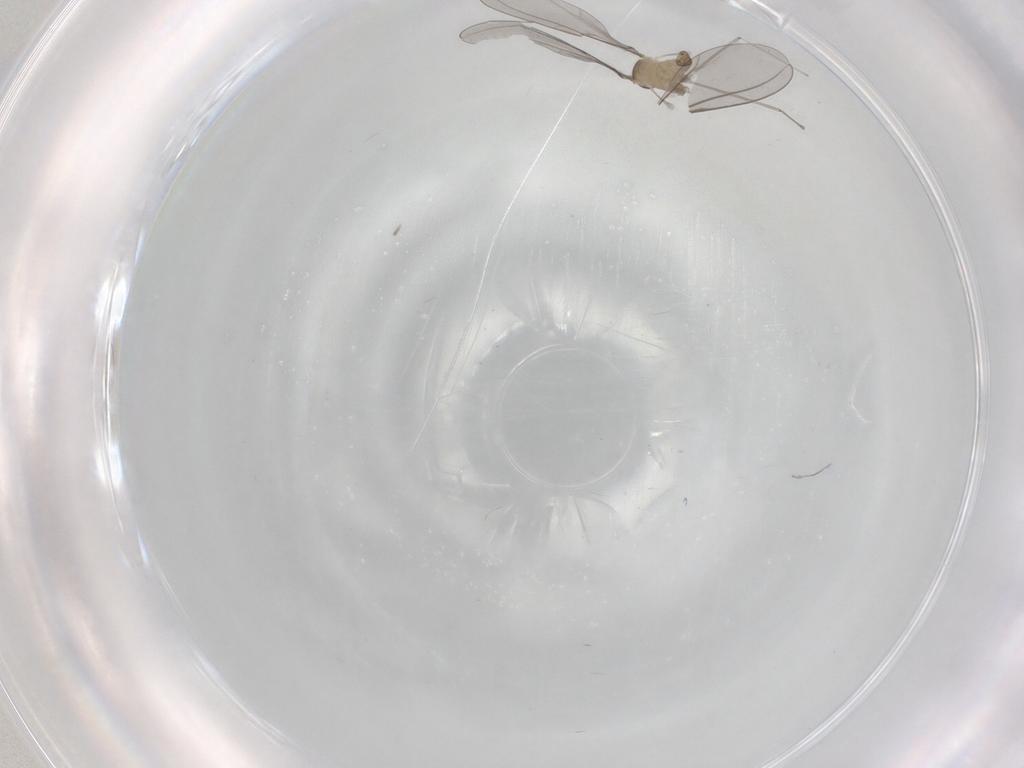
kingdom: Animalia
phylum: Arthropoda
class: Insecta
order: Diptera
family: Cecidomyiidae
